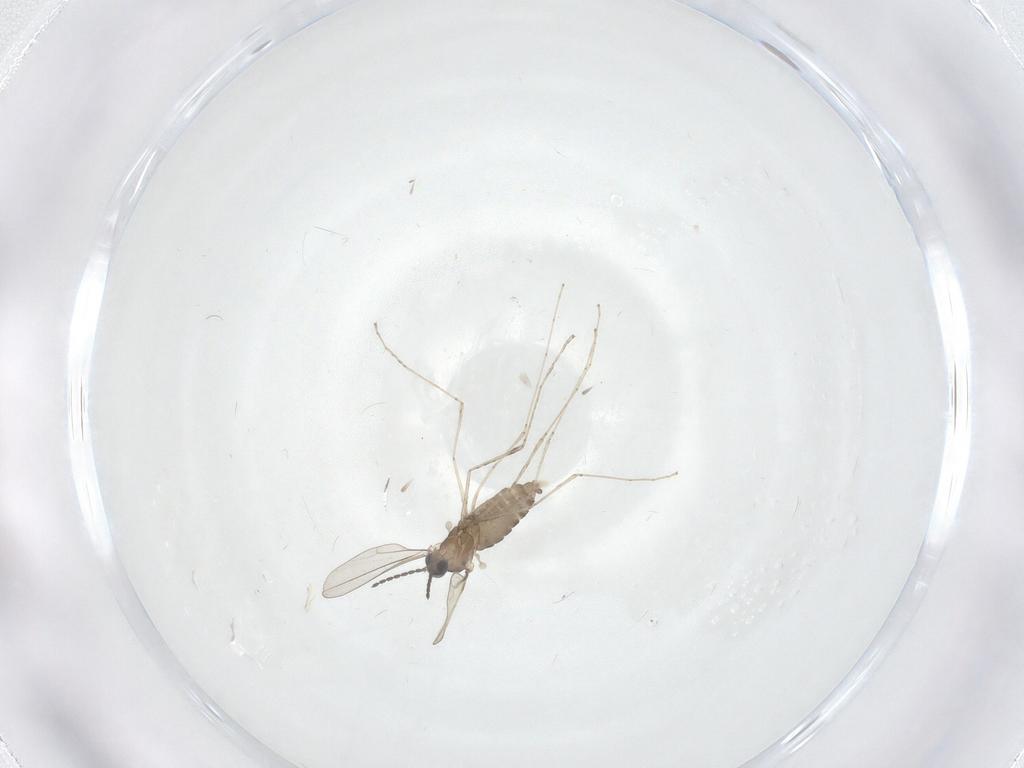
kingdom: Animalia
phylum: Arthropoda
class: Insecta
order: Diptera
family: Cecidomyiidae
